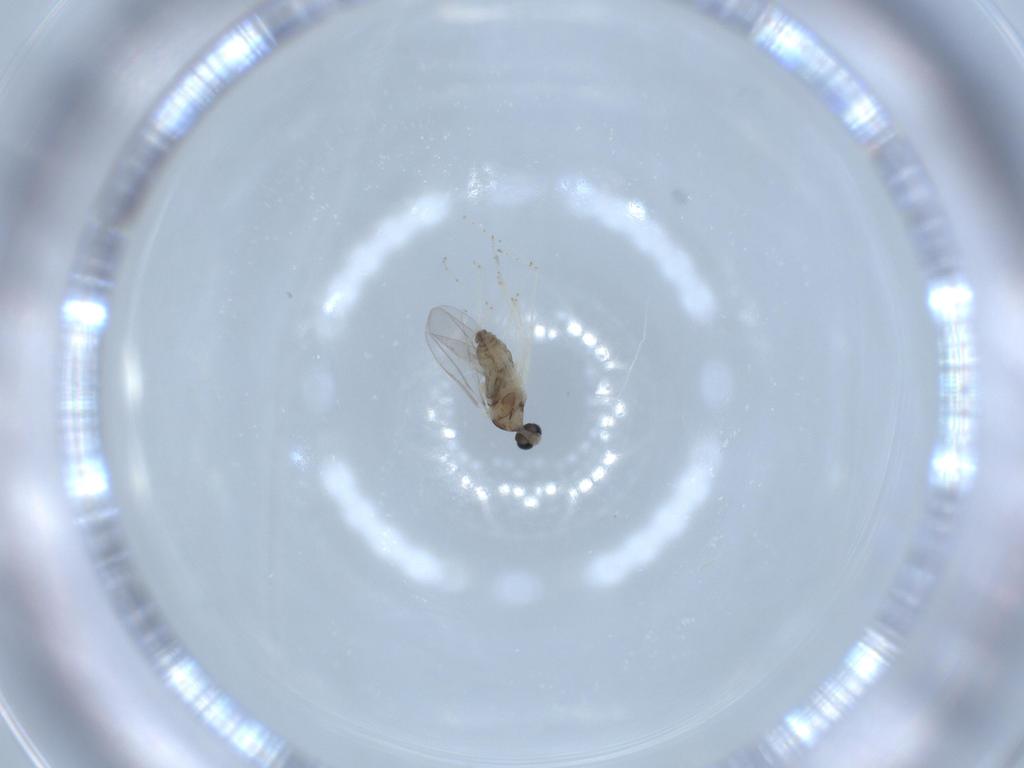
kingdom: Animalia
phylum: Arthropoda
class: Insecta
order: Diptera
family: Cecidomyiidae
